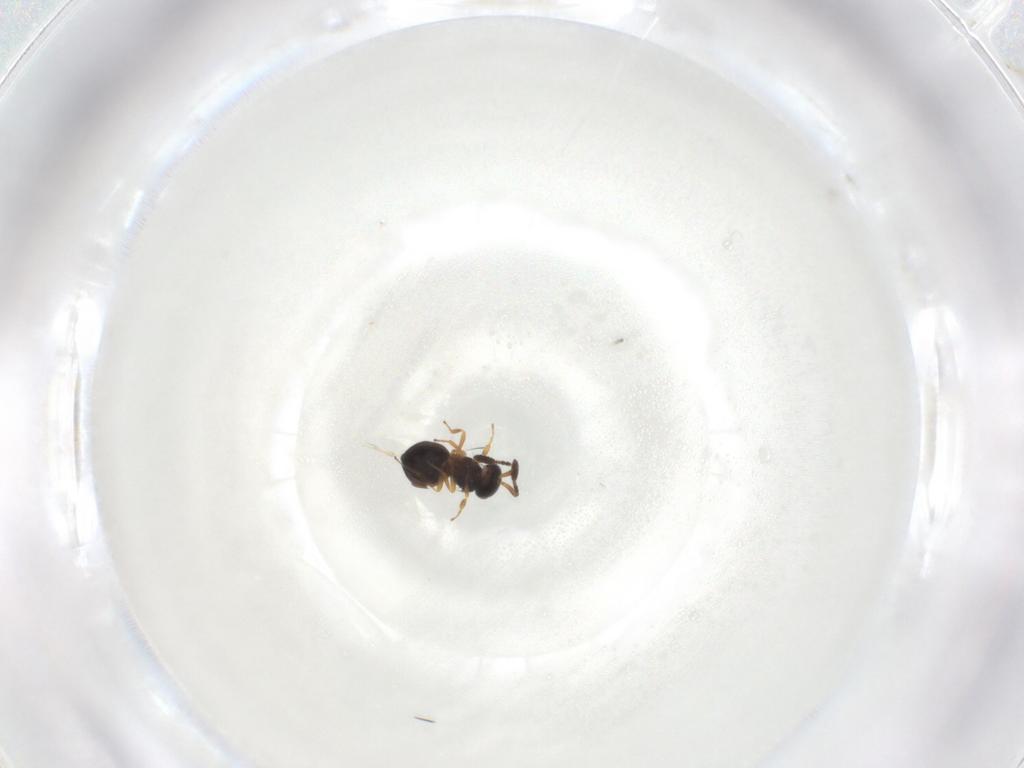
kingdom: Animalia
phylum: Arthropoda
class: Insecta
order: Hymenoptera
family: Scelionidae
